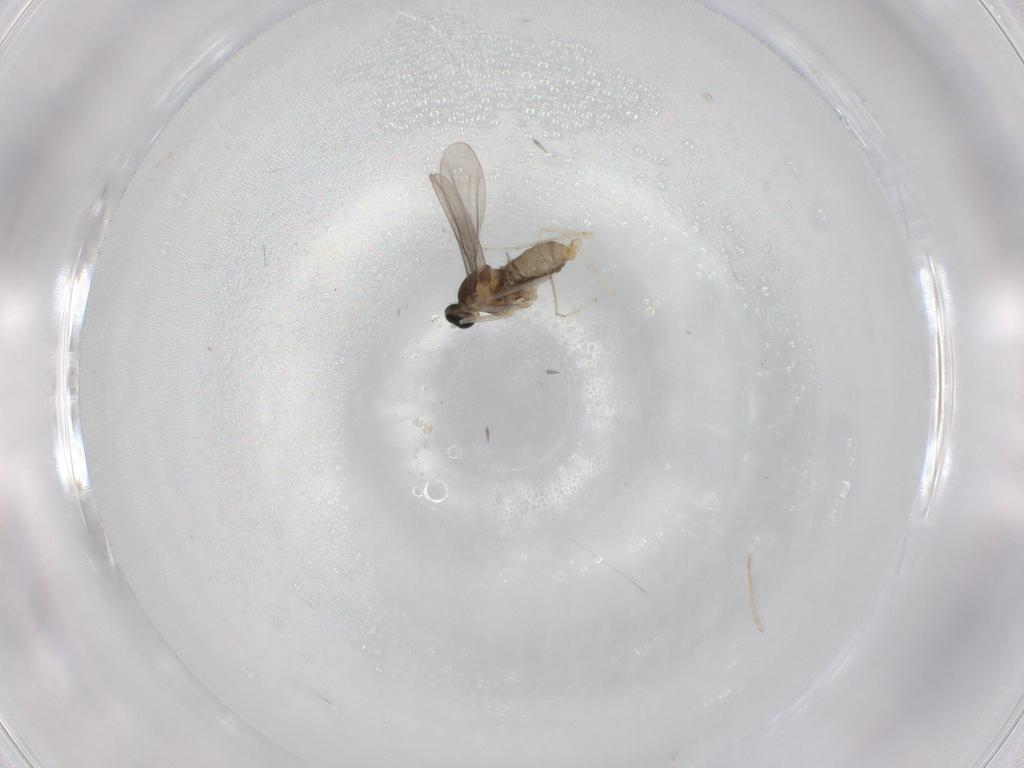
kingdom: Animalia
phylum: Arthropoda
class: Insecta
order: Diptera
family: Cecidomyiidae
